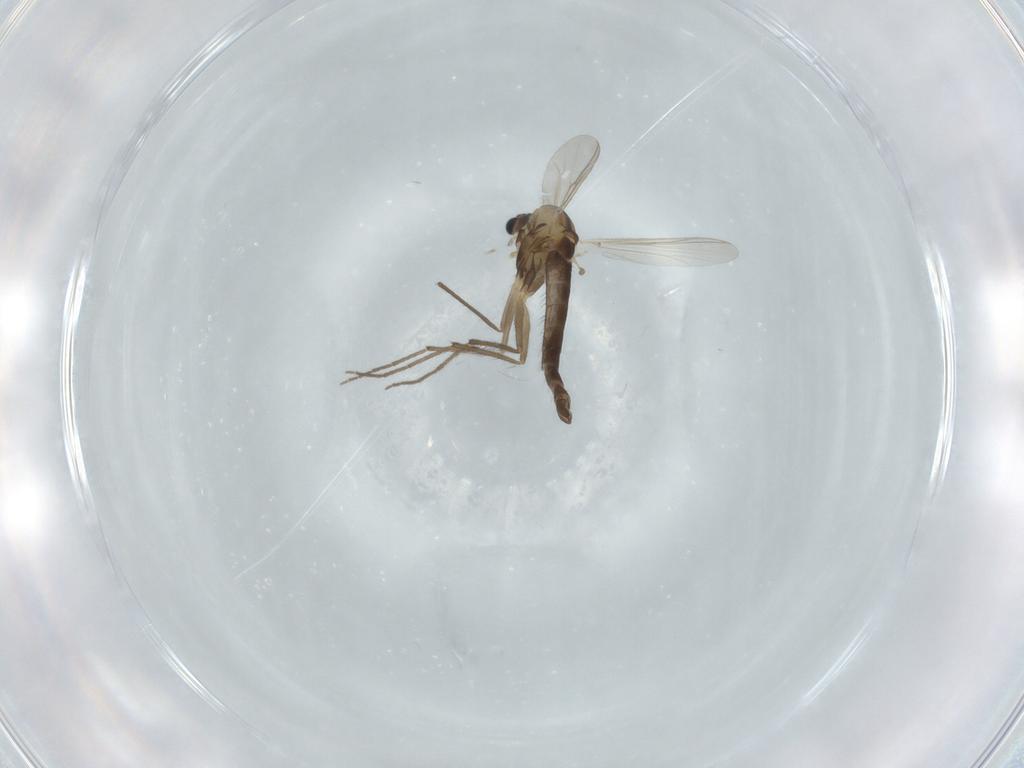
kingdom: Animalia
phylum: Arthropoda
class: Insecta
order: Diptera
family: Chironomidae
